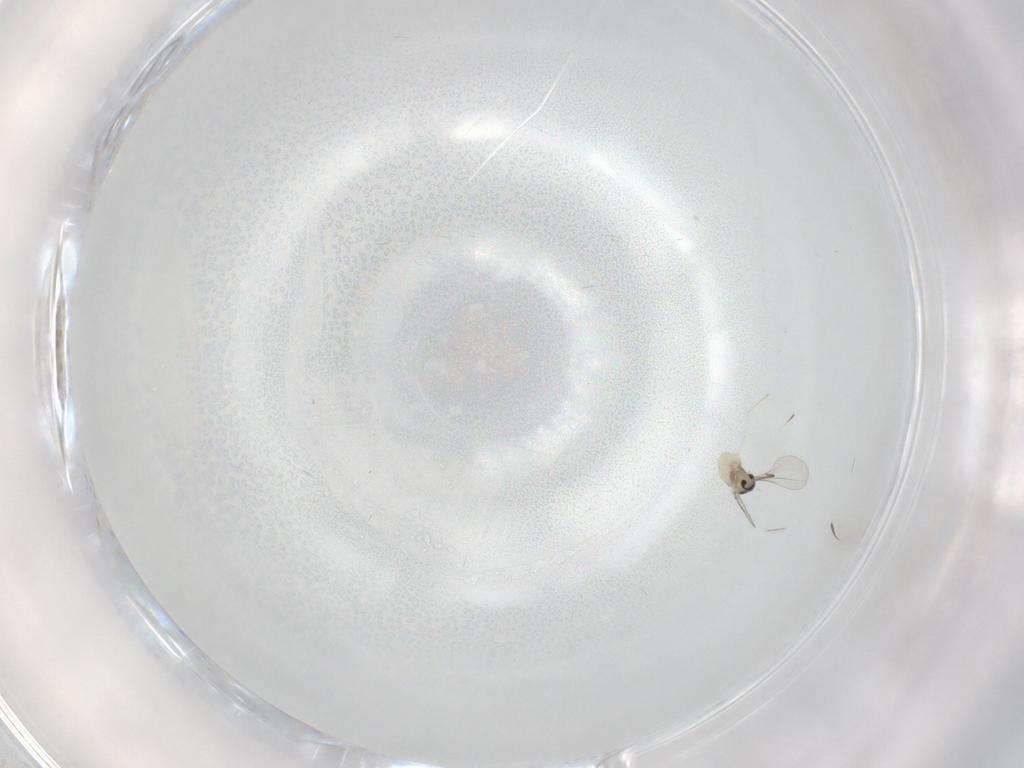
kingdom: Animalia
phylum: Arthropoda
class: Insecta
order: Diptera
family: Cecidomyiidae
